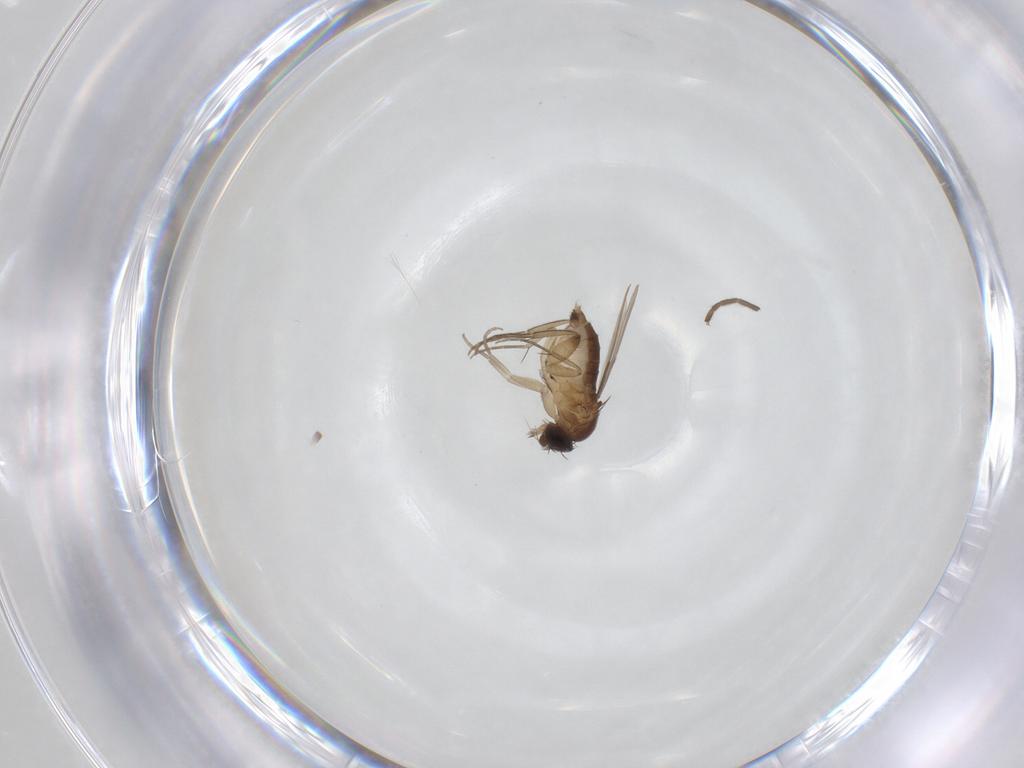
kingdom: Animalia
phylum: Arthropoda
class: Insecta
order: Diptera
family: Phoridae
